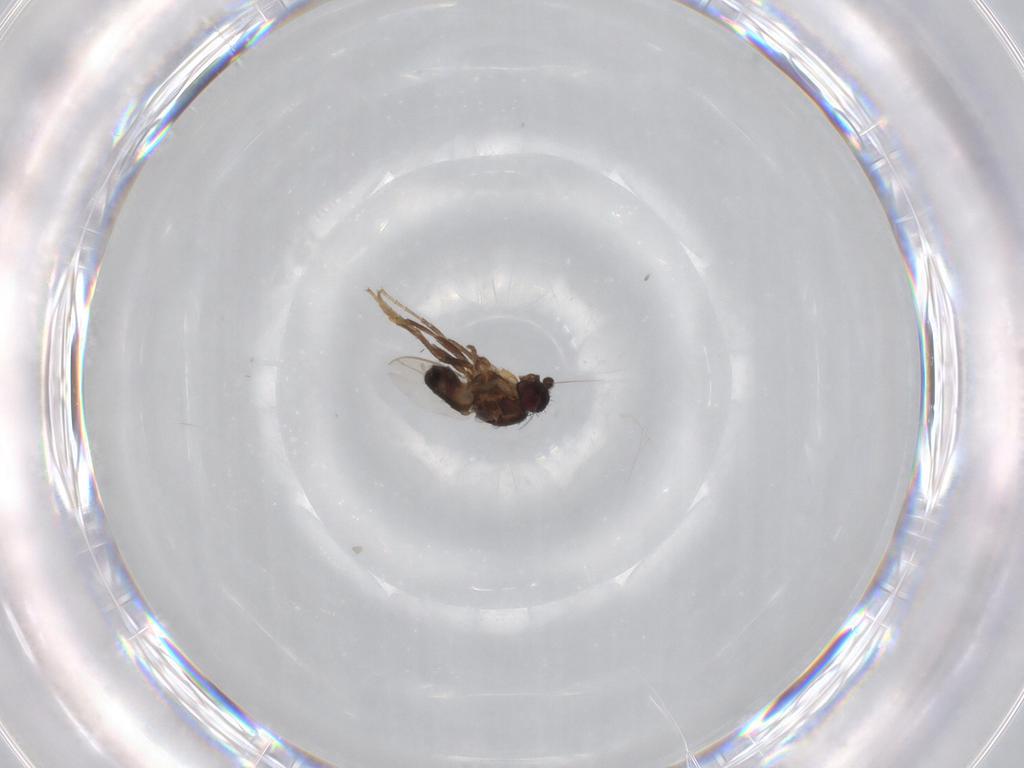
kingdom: Animalia
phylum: Arthropoda
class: Insecta
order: Diptera
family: Sphaeroceridae
